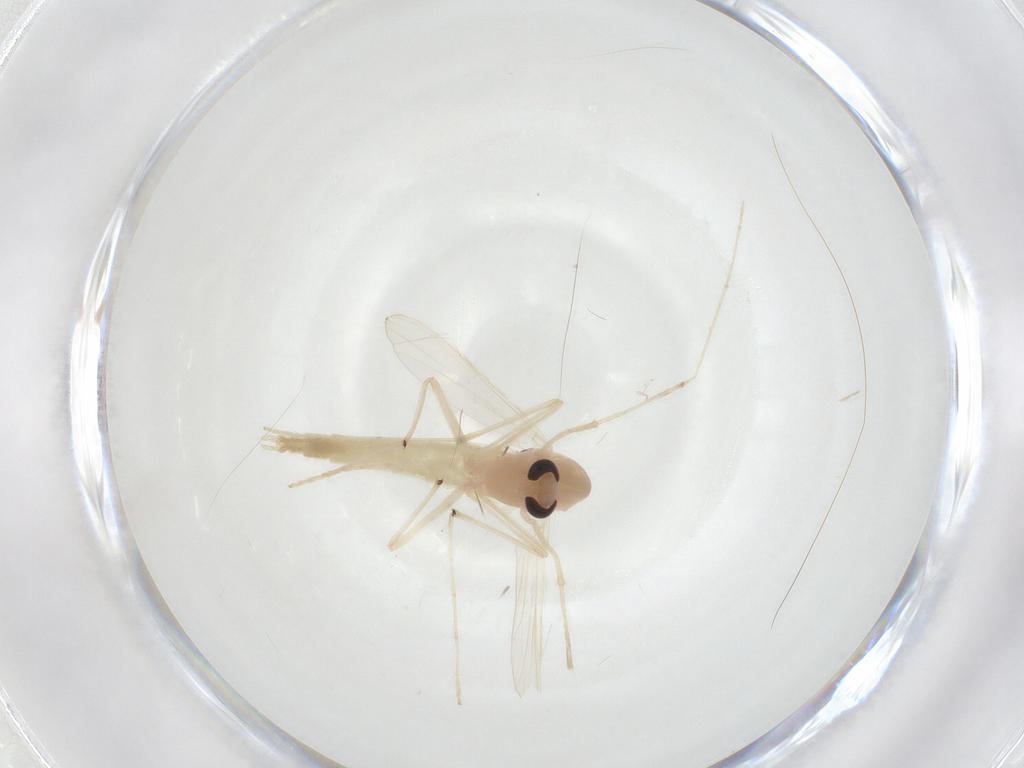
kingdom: Animalia
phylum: Arthropoda
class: Insecta
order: Diptera
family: Chironomidae
